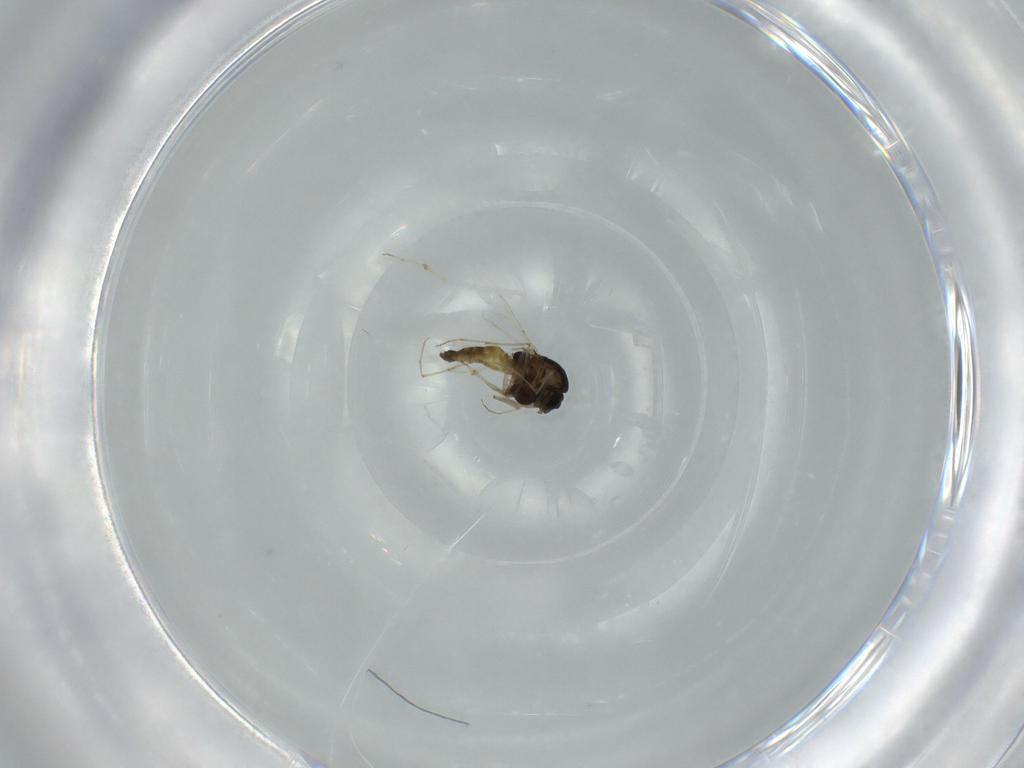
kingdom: Animalia
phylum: Arthropoda
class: Insecta
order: Diptera
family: Chironomidae
